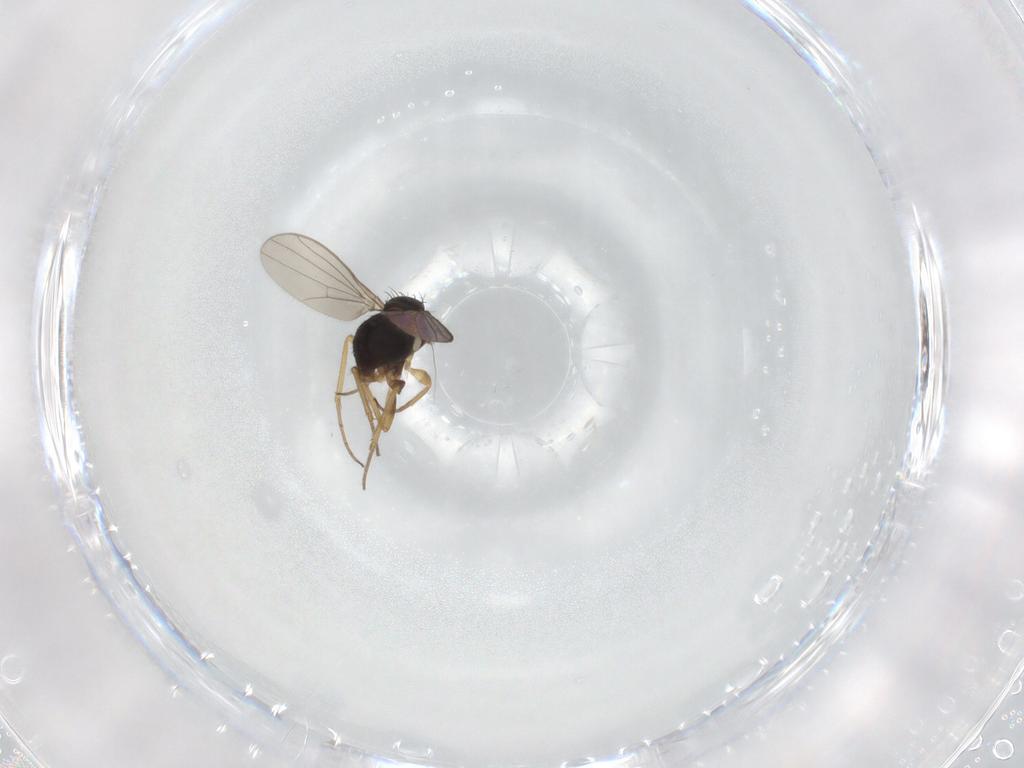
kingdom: Animalia
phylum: Arthropoda
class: Insecta
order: Diptera
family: Dolichopodidae
